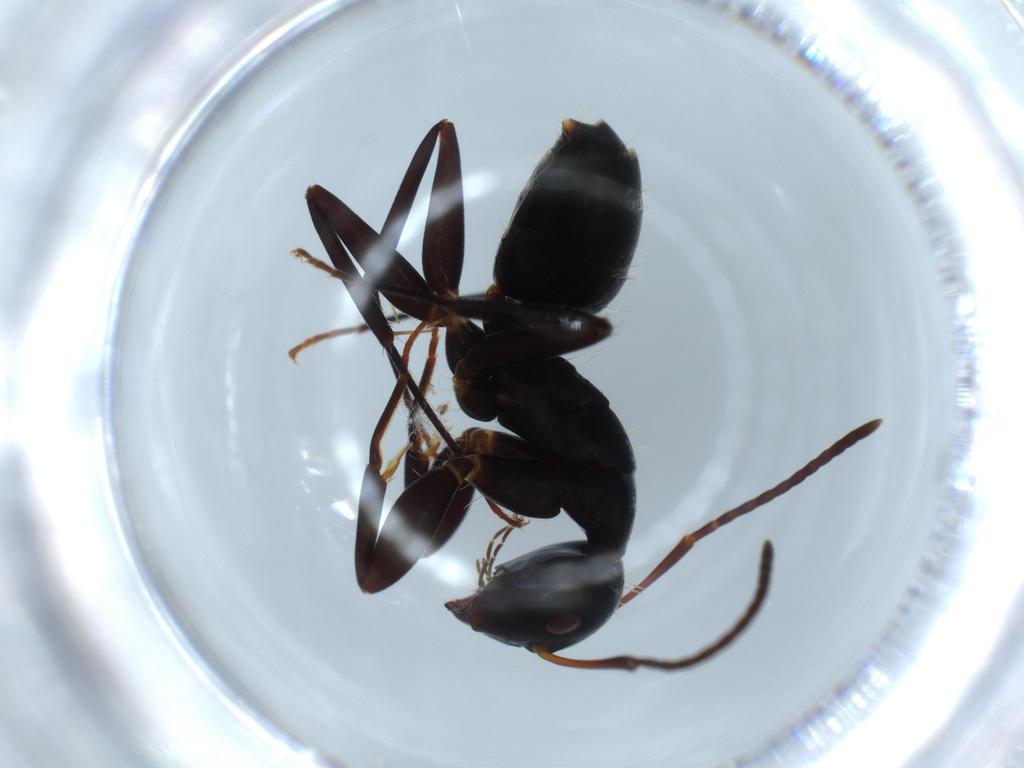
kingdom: Animalia
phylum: Arthropoda
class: Insecta
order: Hymenoptera
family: Formicidae
